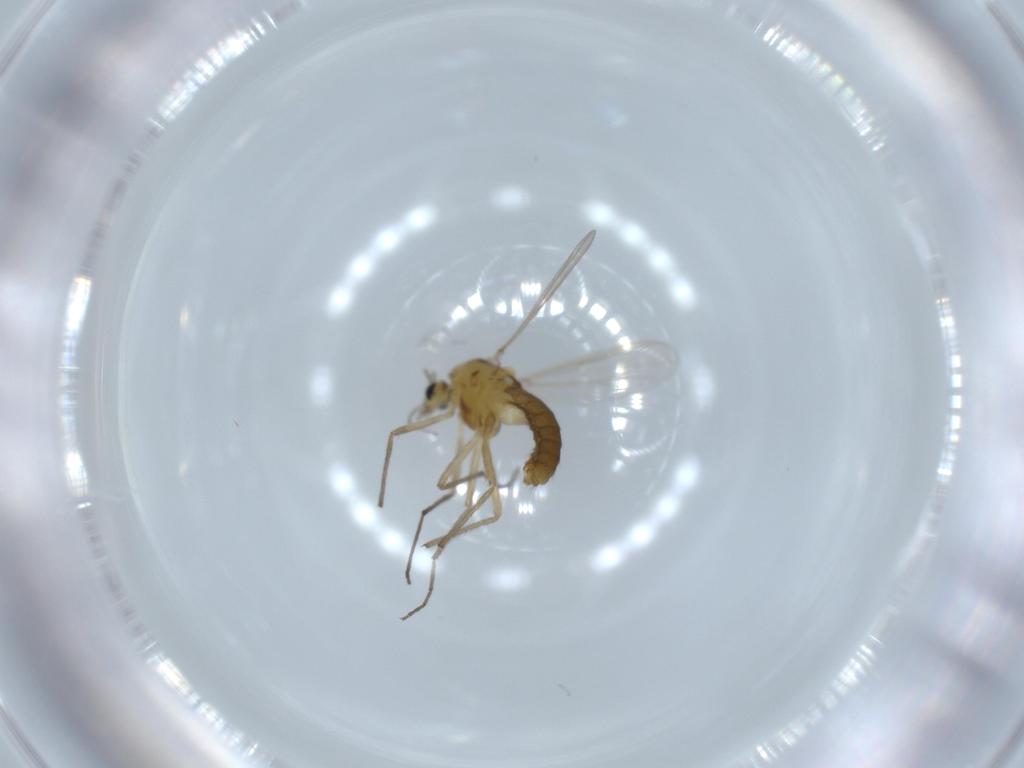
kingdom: Animalia
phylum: Arthropoda
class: Insecta
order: Diptera
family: Chironomidae
